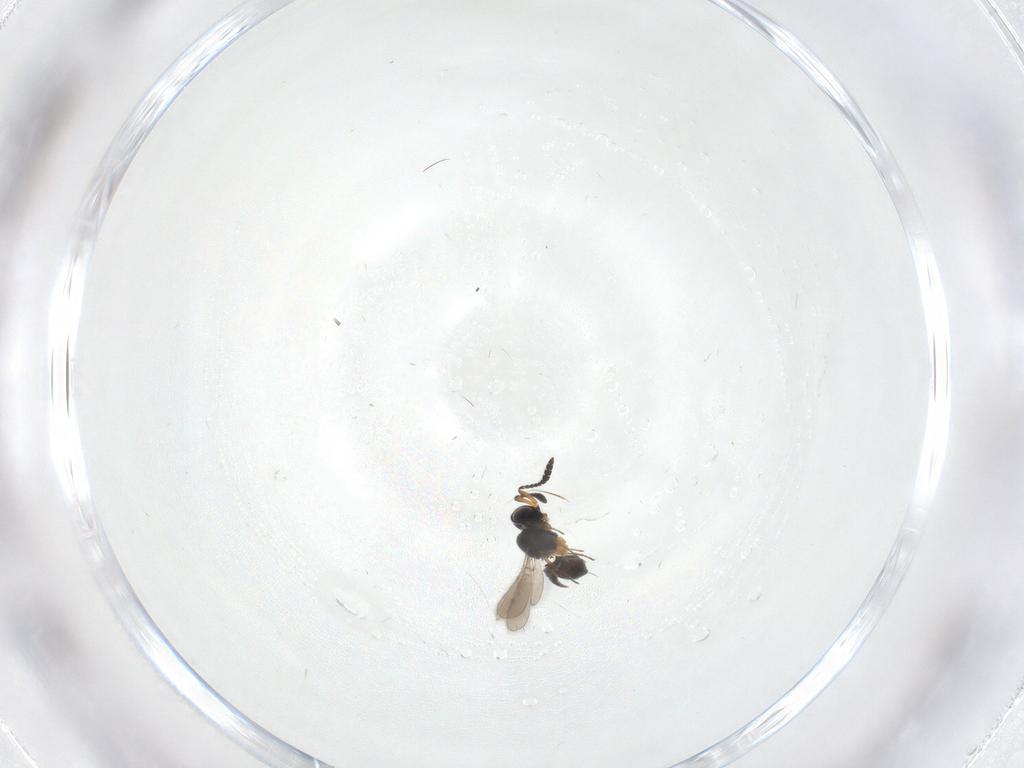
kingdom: Animalia
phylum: Arthropoda
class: Insecta
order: Hymenoptera
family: Scelionidae
